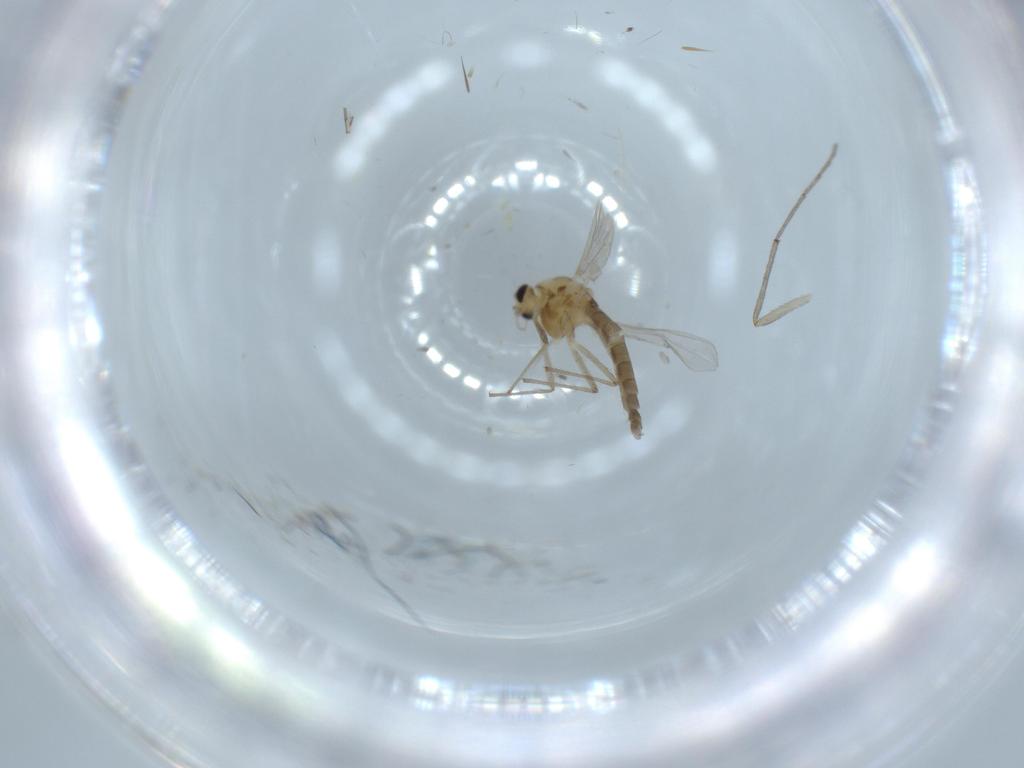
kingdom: Animalia
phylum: Arthropoda
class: Insecta
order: Diptera
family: Chironomidae
